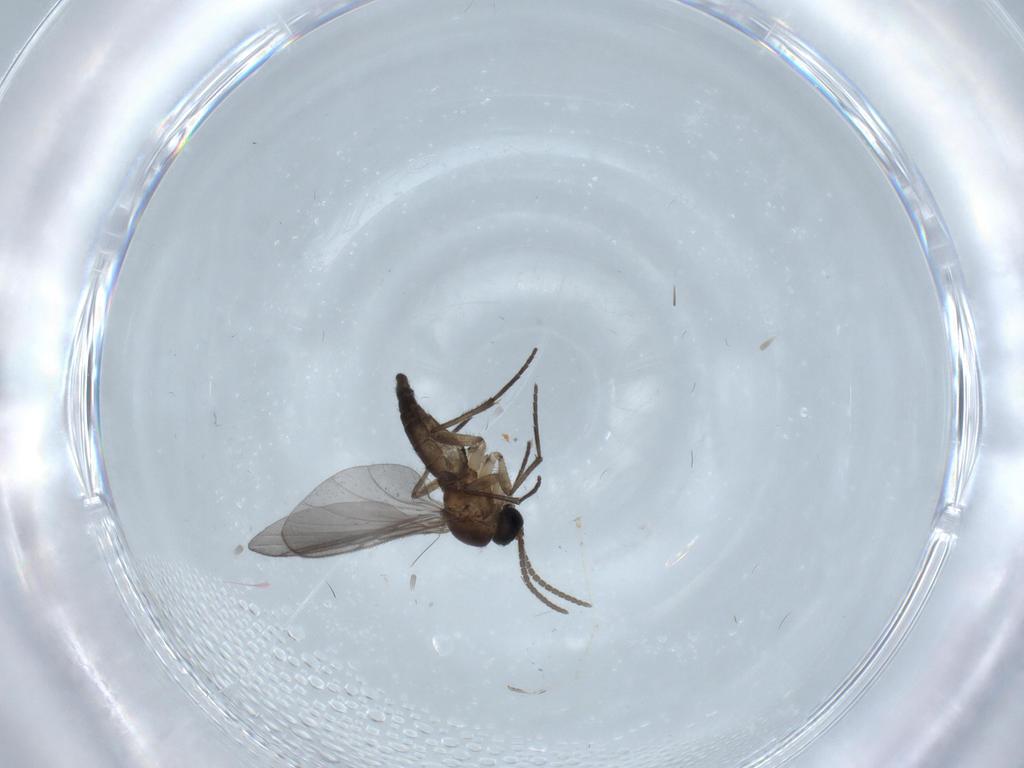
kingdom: Animalia
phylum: Arthropoda
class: Insecta
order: Diptera
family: Cecidomyiidae
